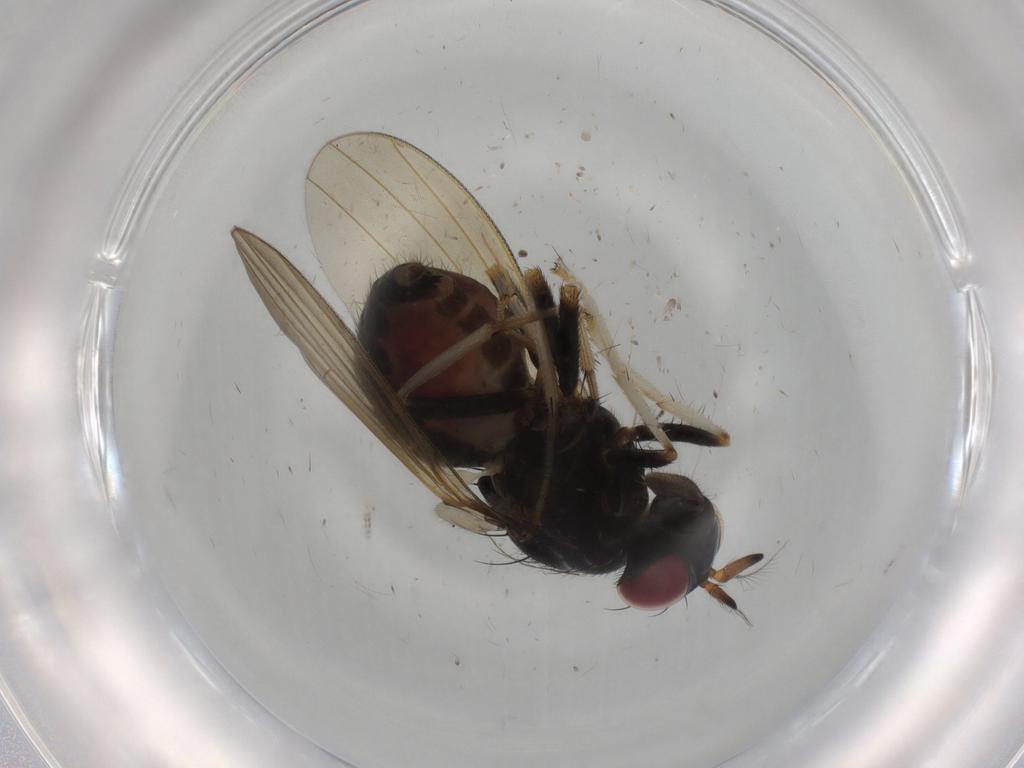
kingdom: Animalia
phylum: Arthropoda
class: Insecta
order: Diptera
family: Cecidomyiidae
